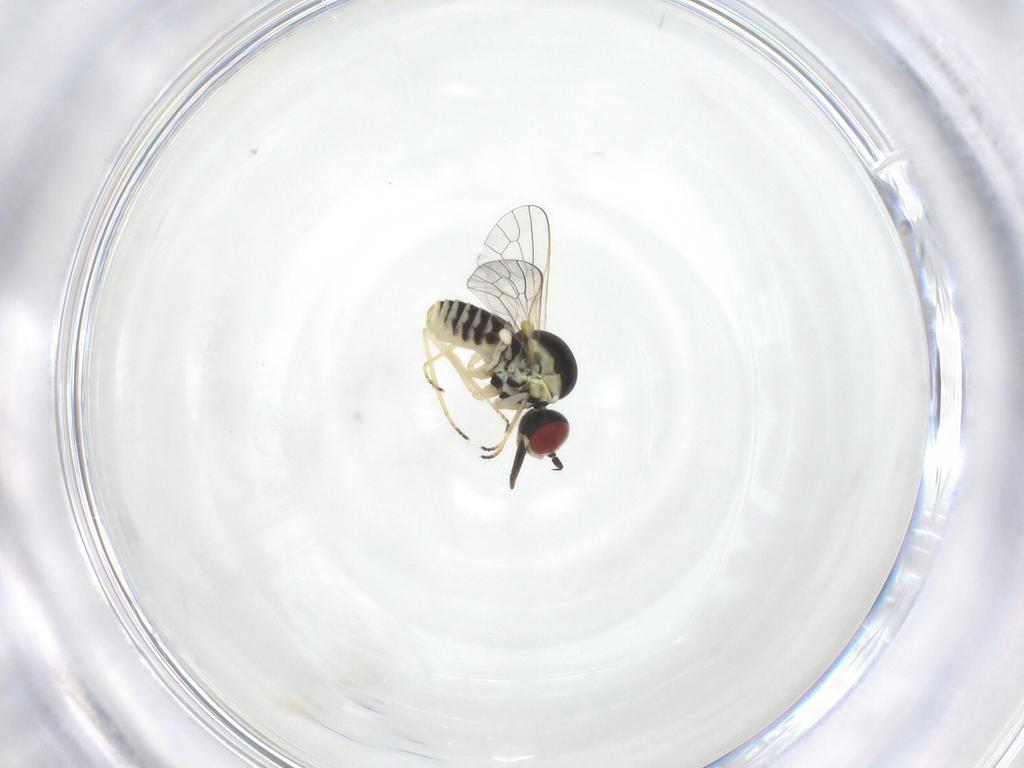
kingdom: Animalia
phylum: Arthropoda
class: Insecta
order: Diptera
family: Mythicomyiidae
